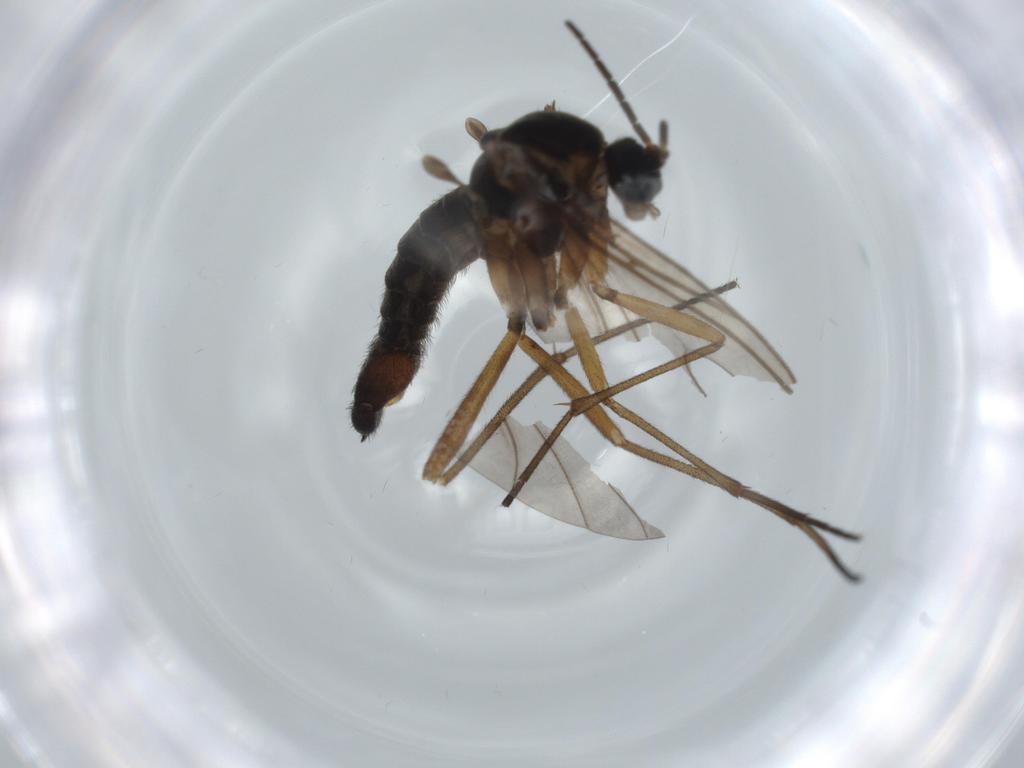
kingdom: Animalia
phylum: Arthropoda
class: Insecta
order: Diptera
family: Sciaridae
